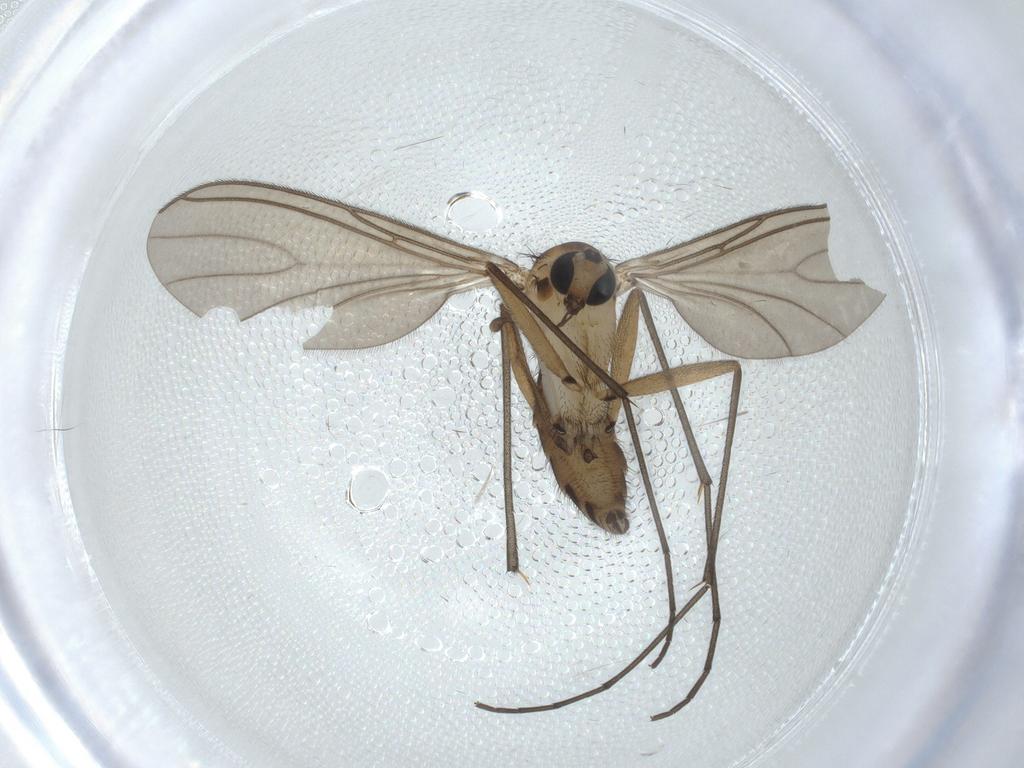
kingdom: Animalia
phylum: Arthropoda
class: Insecta
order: Diptera
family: Sciaridae
